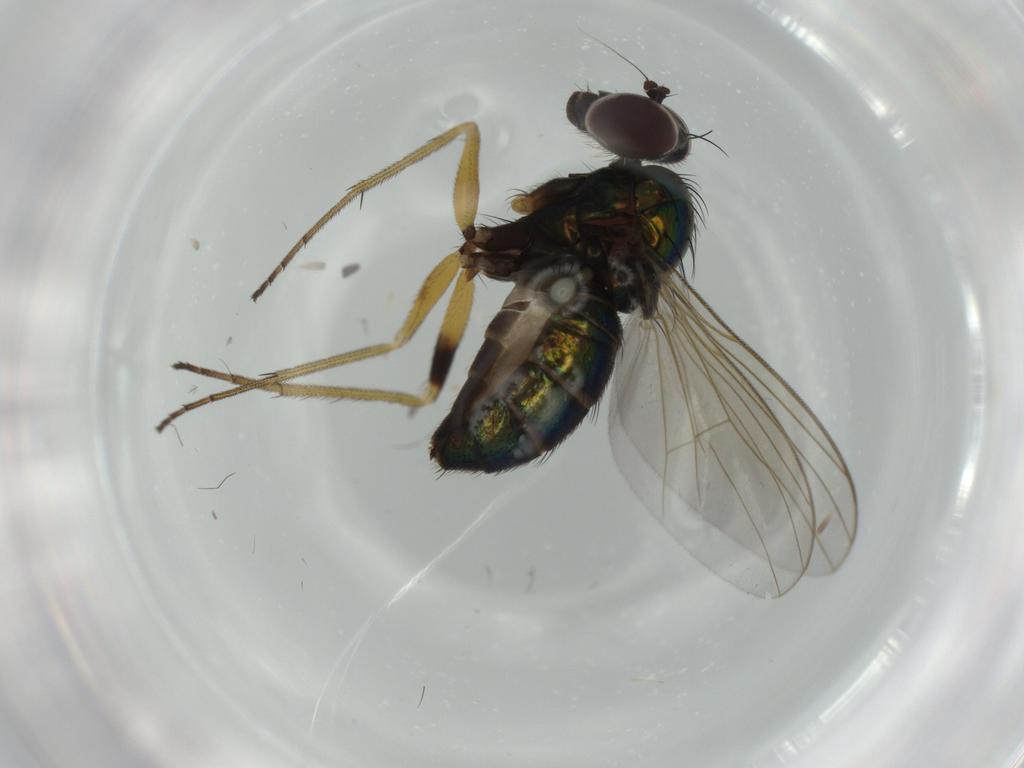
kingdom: Animalia
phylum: Arthropoda
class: Insecta
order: Diptera
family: Dolichopodidae
